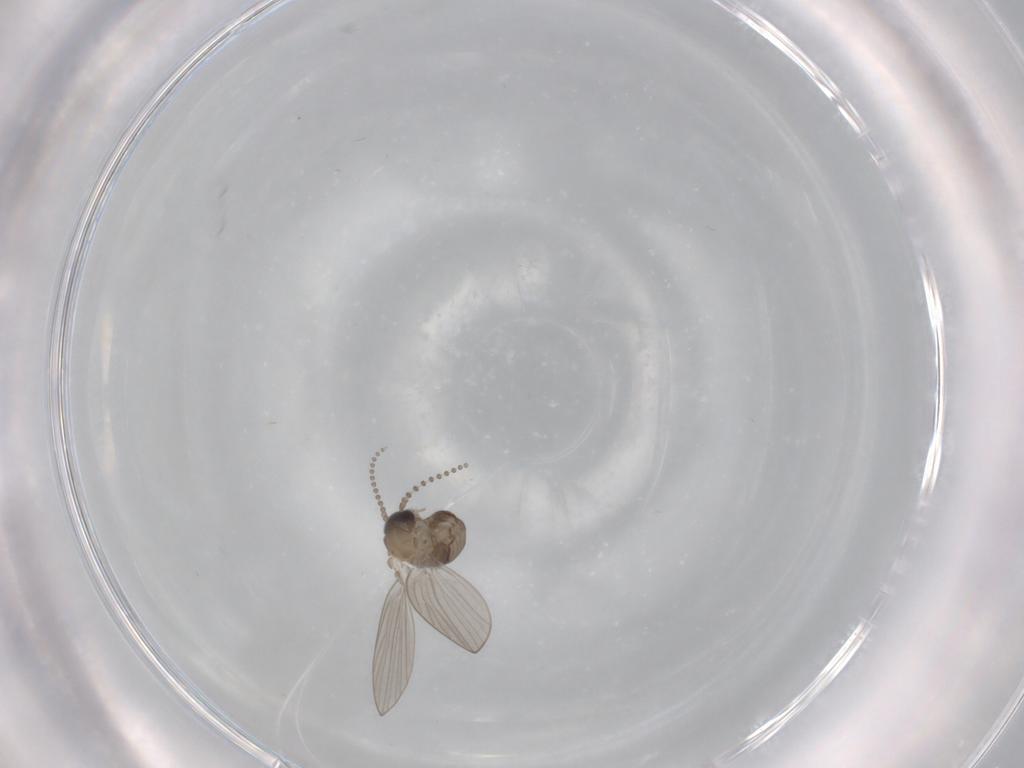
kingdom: Animalia
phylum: Arthropoda
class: Insecta
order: Diptera
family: Psychodidae
